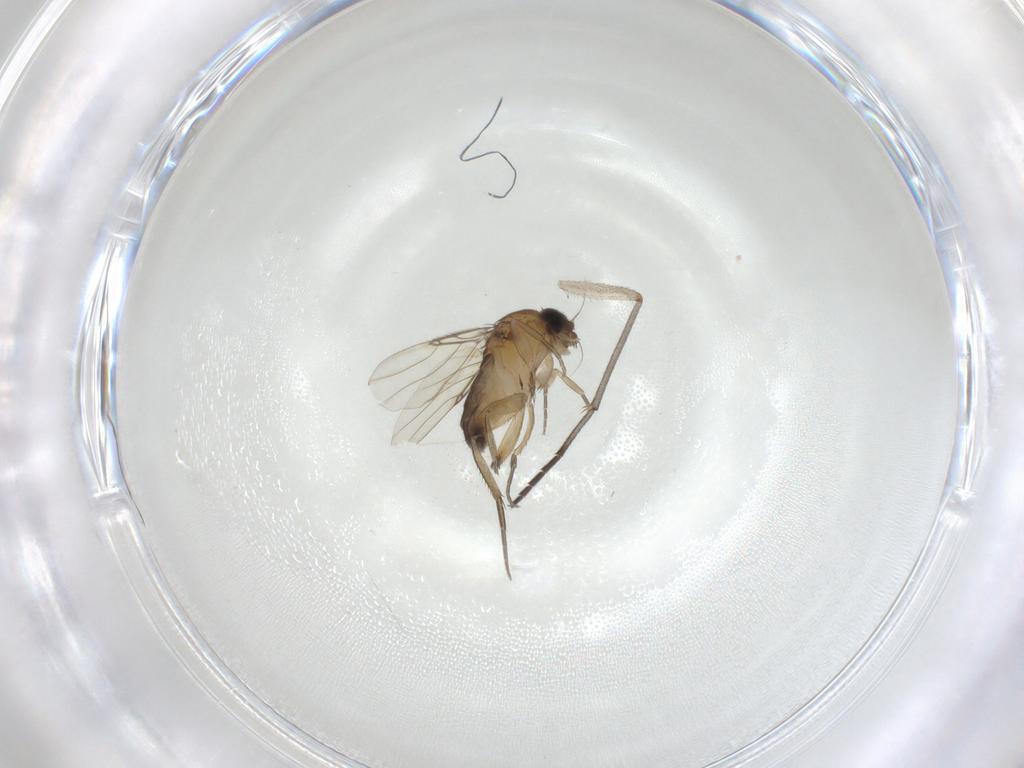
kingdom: Animalia
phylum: Arthropoda
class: Insecta
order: Diptera
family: Phoridae
